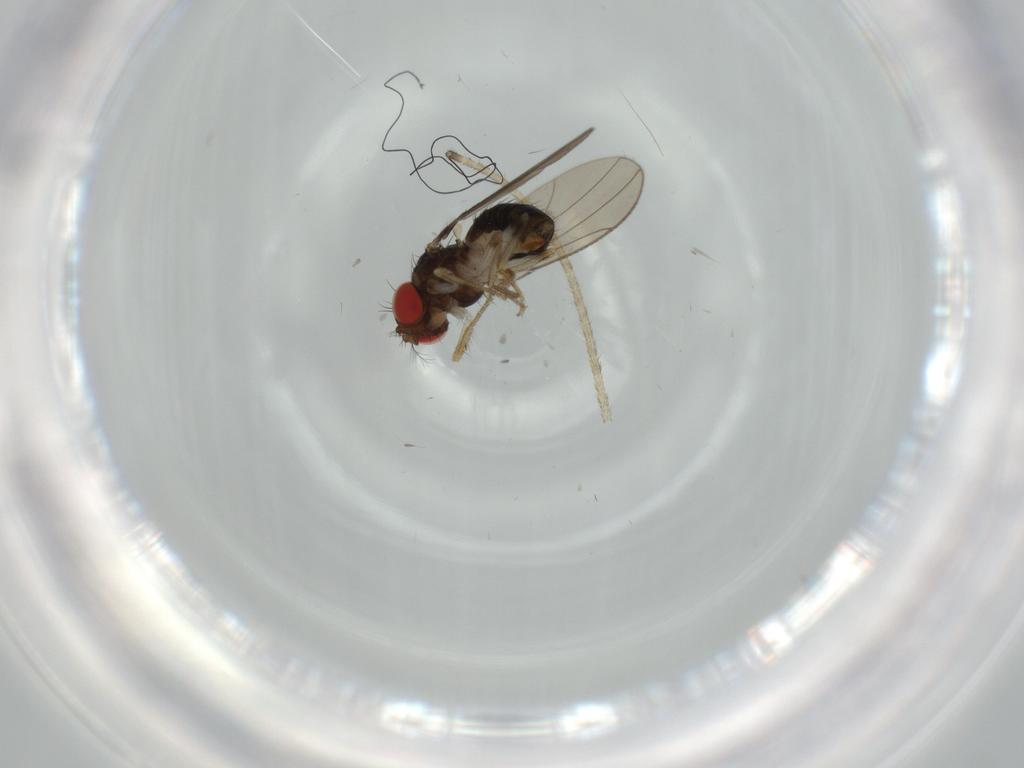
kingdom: Animalia
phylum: Arthropoda
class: Insecta
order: Diptera
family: Drosophilidae
